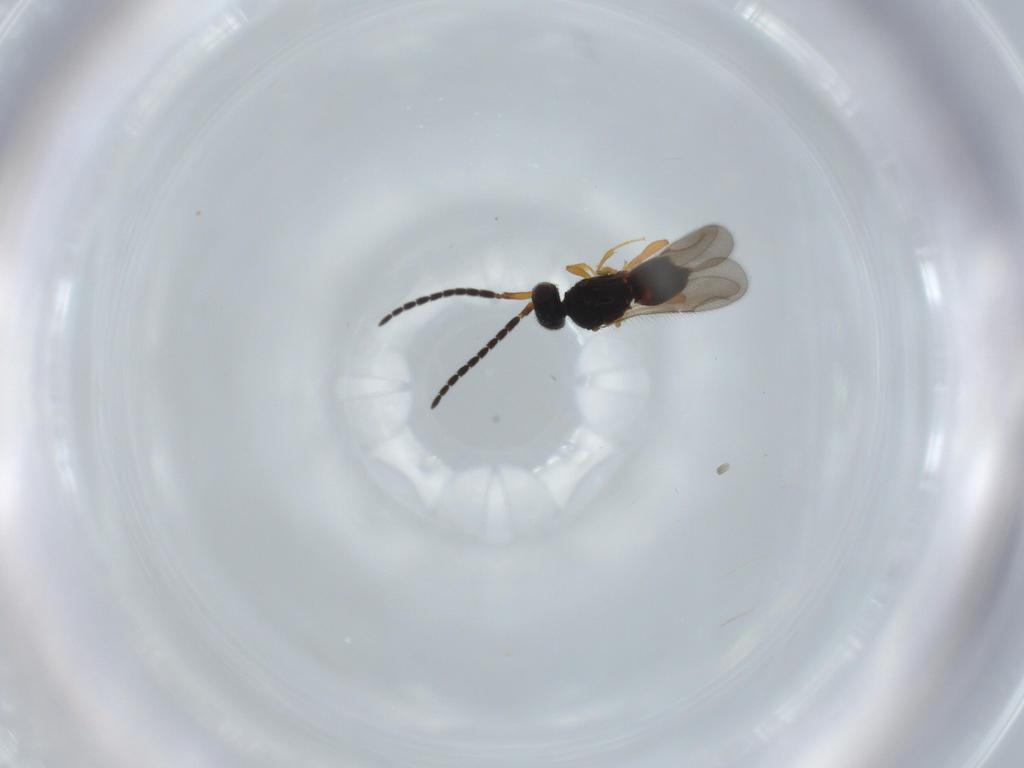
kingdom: Animalia
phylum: Arthropoda
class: Insecta
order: Hymenoptera
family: Ceraphronidae
